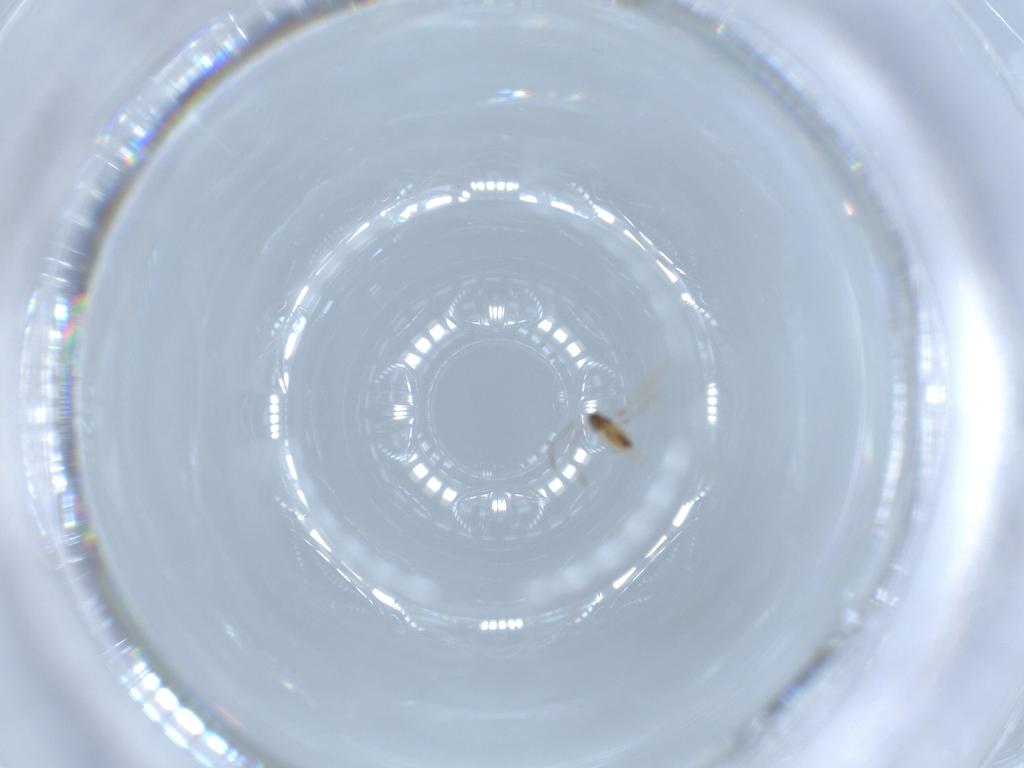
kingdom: Animalia
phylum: Arthropoda
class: Insecta
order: Hymenoptera
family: Mymaridae
